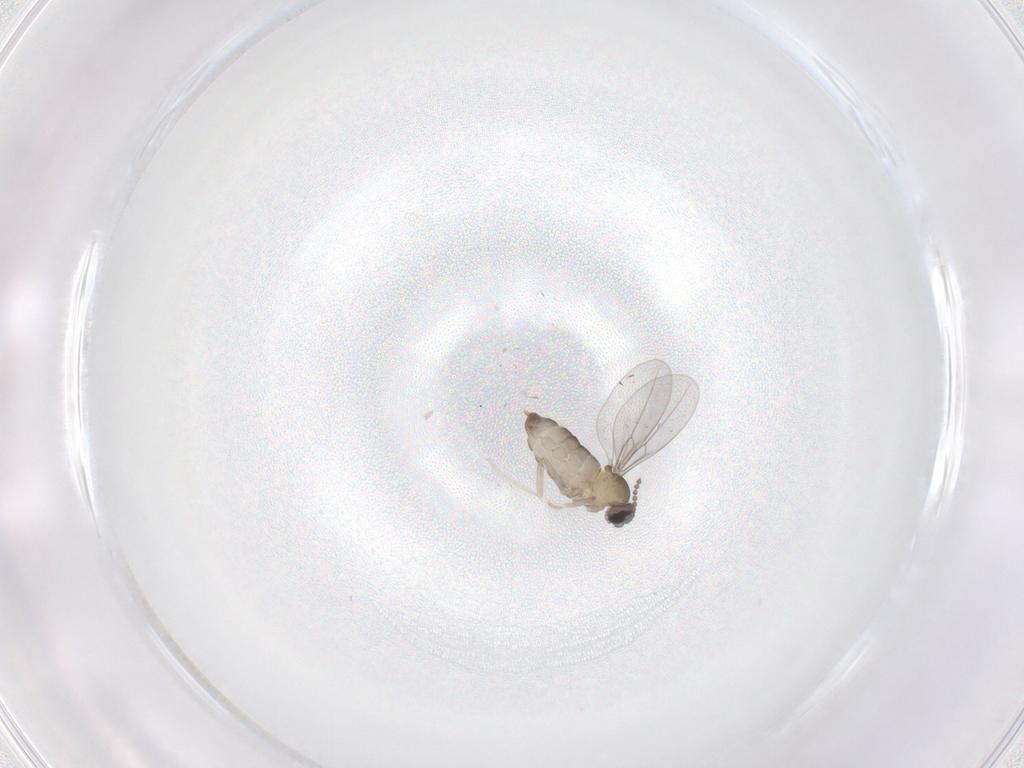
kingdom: Animalia
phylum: Arthropoda
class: Insecta
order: Diptera
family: Cecidomyiidae
